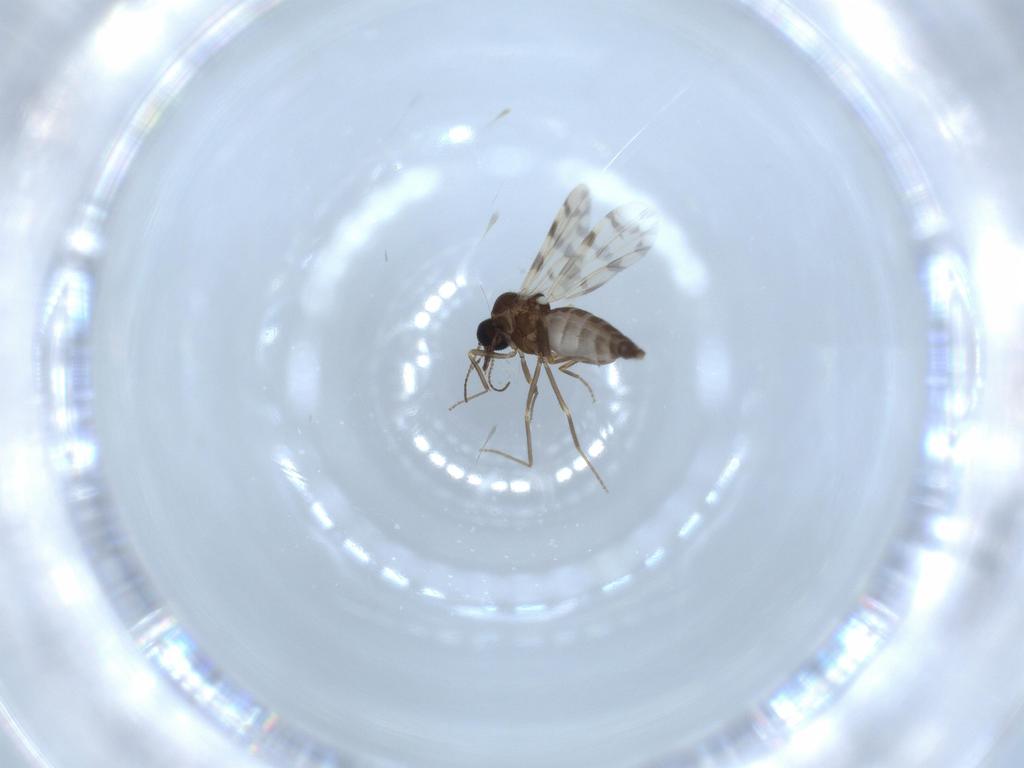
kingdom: Animalia
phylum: Arthropoda
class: Insecta
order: Diptera
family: Ceratopogonidae
